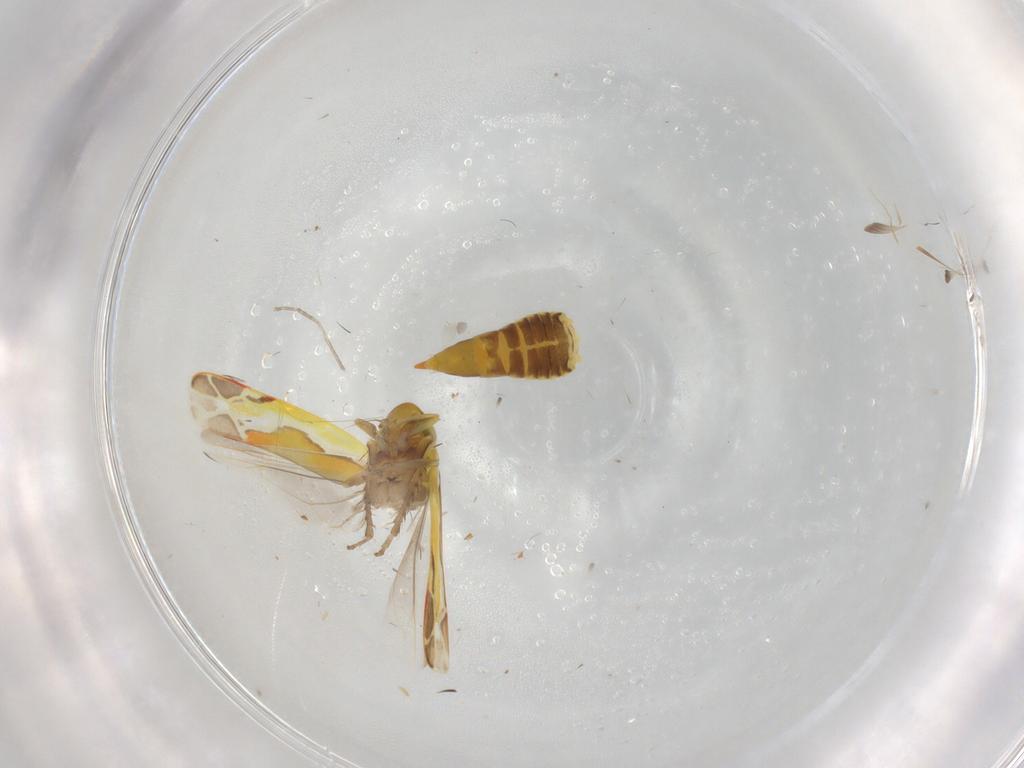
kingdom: Animalia
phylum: Arthropoda
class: Insecta
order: Hemiptera
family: Cicadellidae
